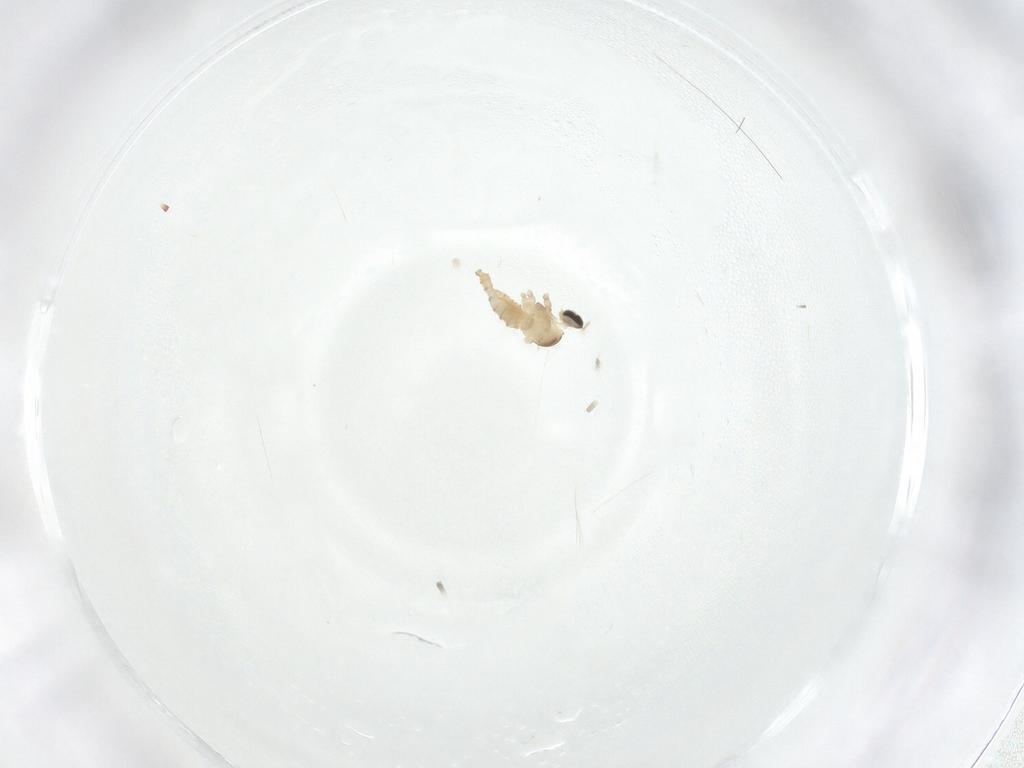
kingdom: Animalia
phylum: Arthropoda
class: Insecta
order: Diptera
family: Cecidomyiidae
